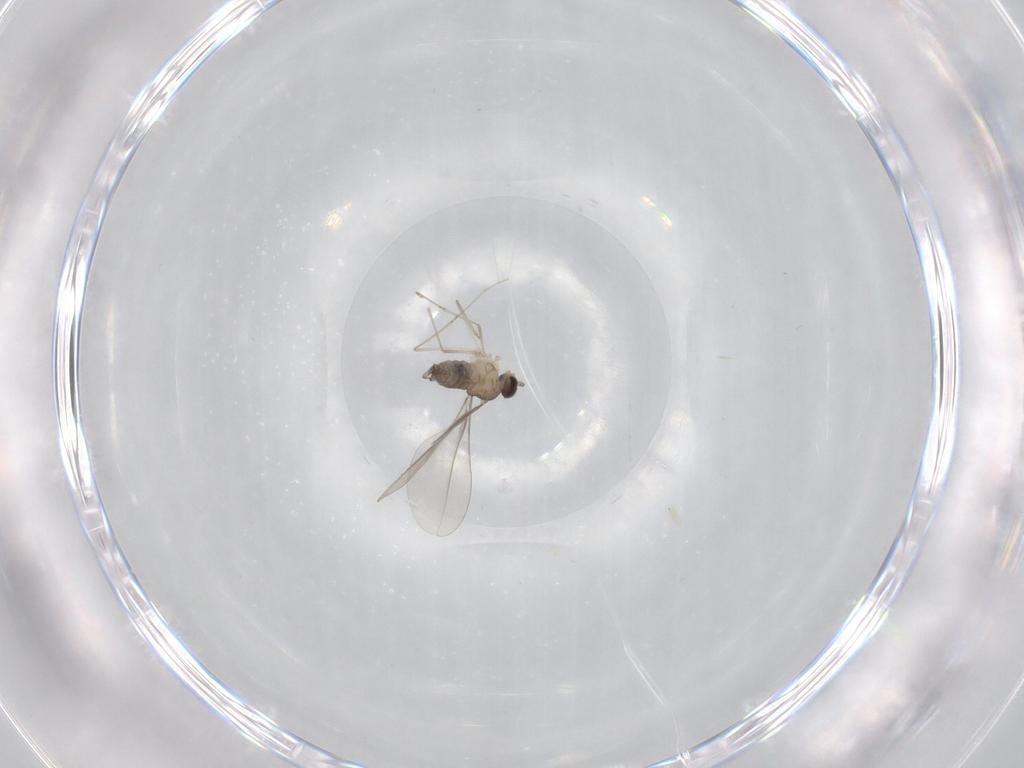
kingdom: Animalia
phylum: Arthropoda
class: Insecta
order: Diptera
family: Cecidomyiidae
